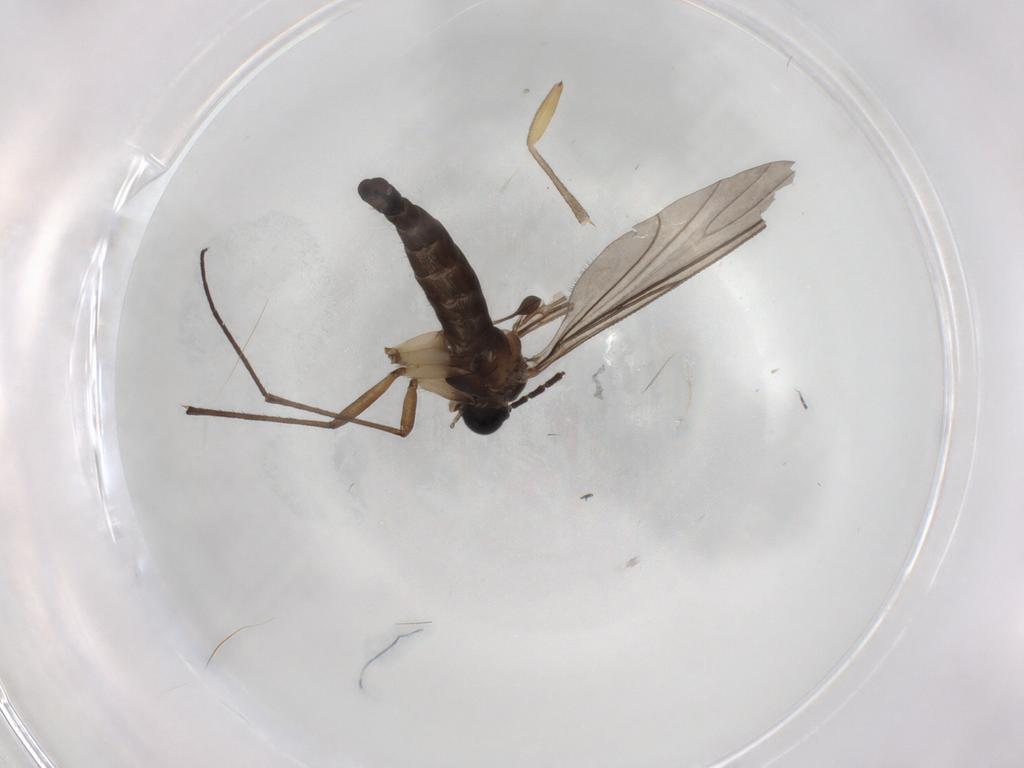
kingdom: Animalia
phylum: Arthropoda
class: Insecta
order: Diptera
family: Sciaridae
